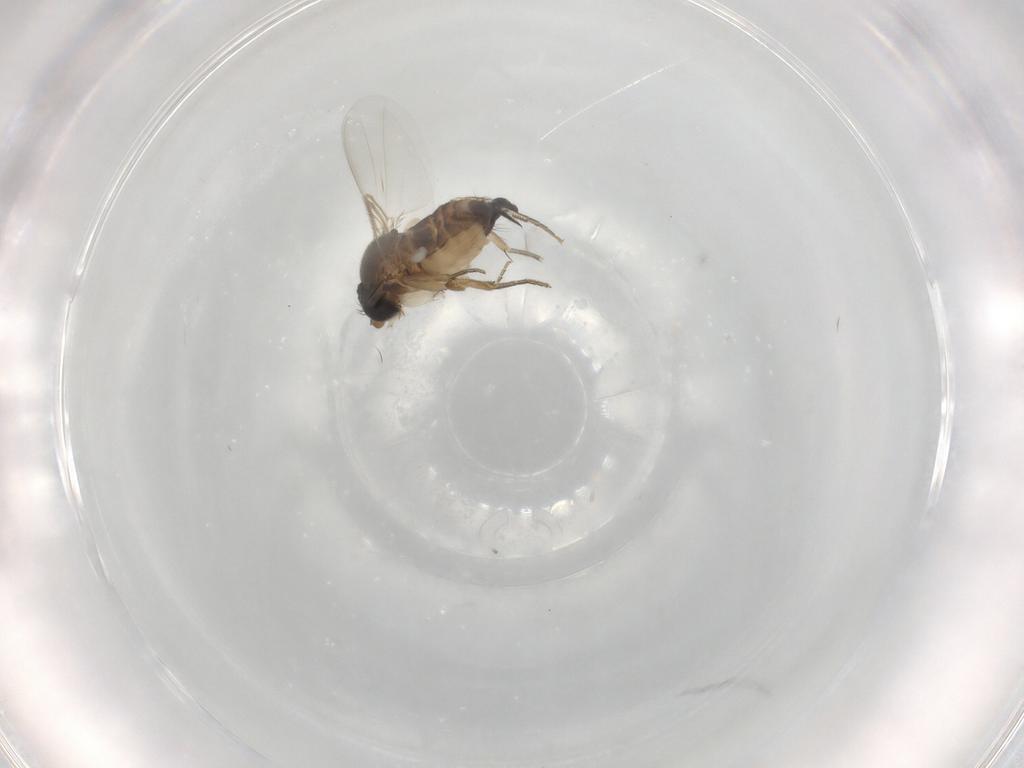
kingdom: Animalia
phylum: Arthropoda
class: Insecta
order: Diptera
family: Phoridae
